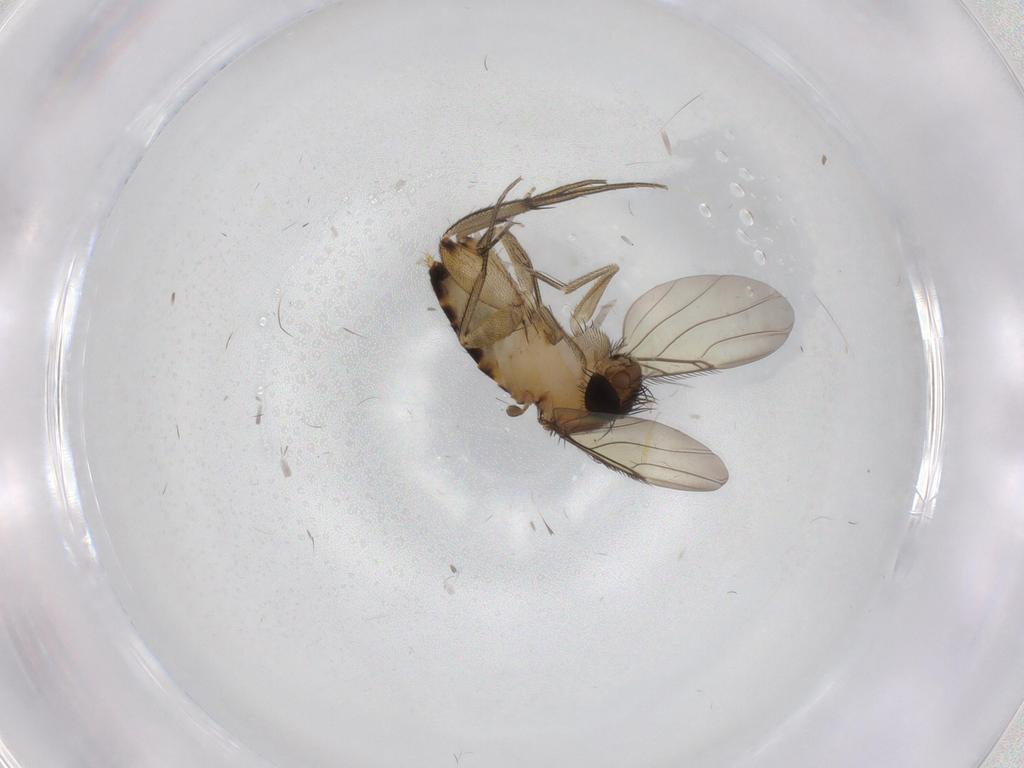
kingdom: Animalia
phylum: Arthropoda
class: Insecta
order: Diptera
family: Phoridae
